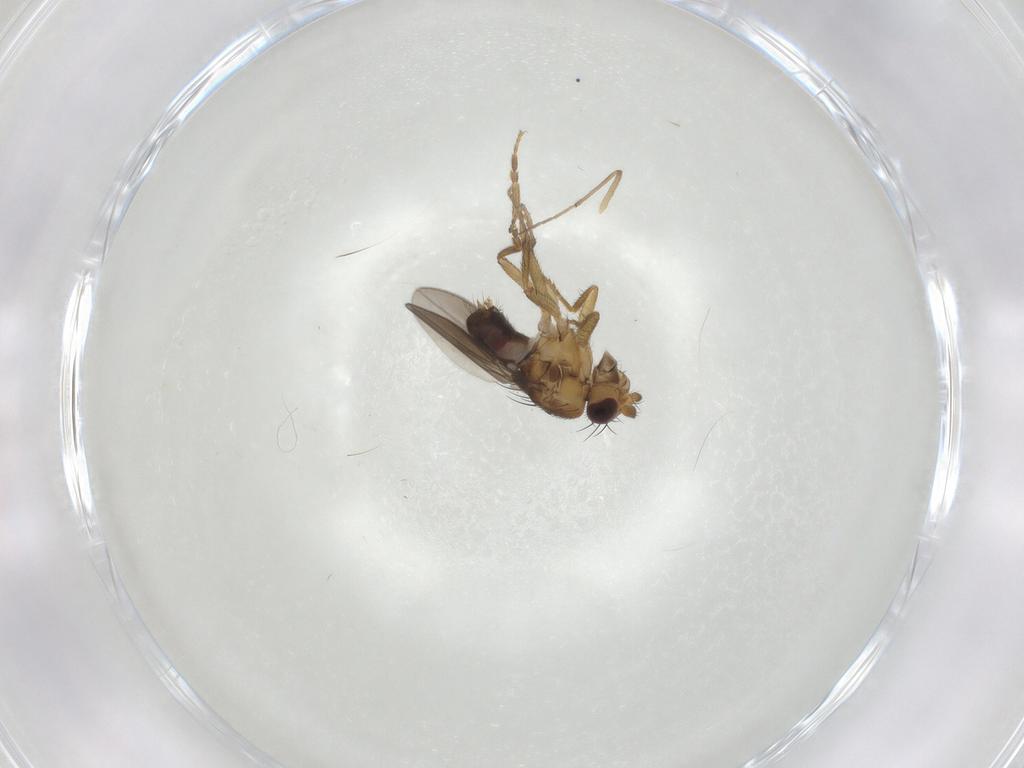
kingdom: Animalia
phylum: Arthropoda
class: Insecta
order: Diptera
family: Sphaeroceridae
